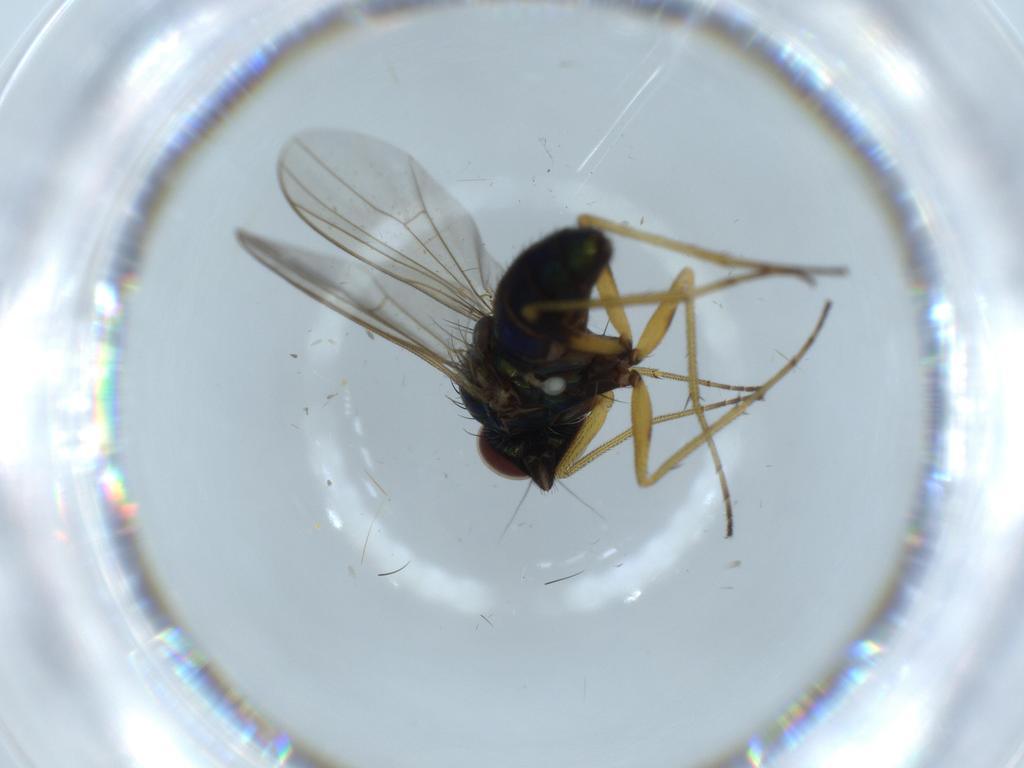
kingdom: Animalia
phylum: Arthropoda
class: Insecta
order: Diptera
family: Dolichopodidae
